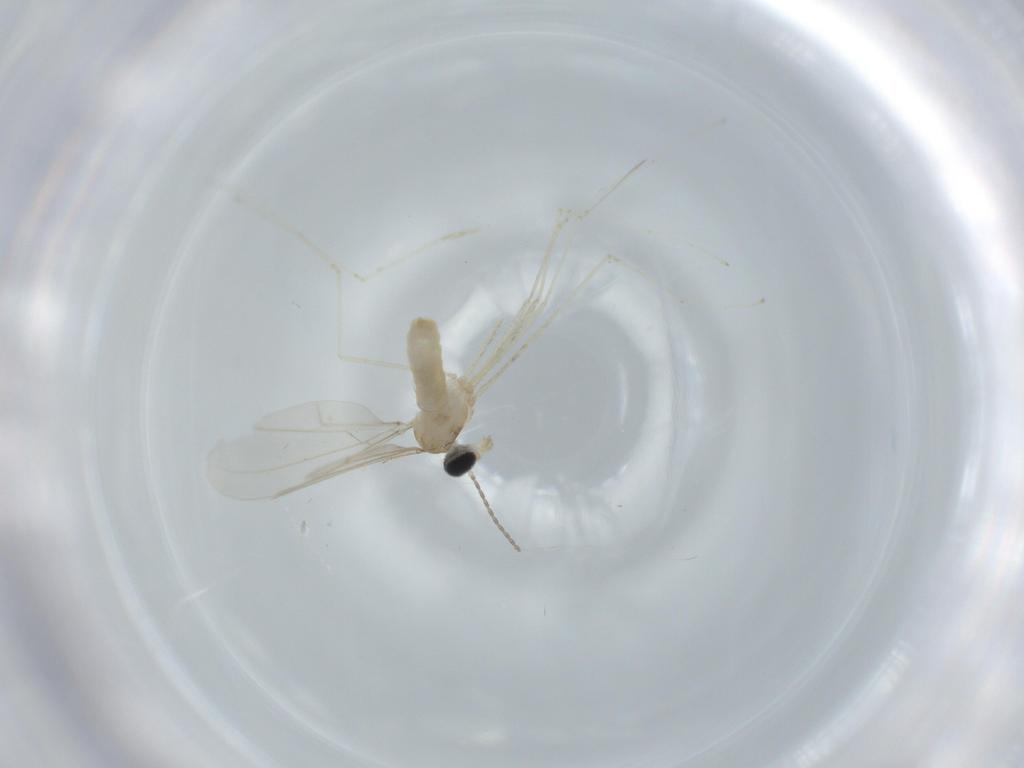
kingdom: Animalia
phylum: Arthropoda
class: Insecta
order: Diptera
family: Cecidomyiidae
